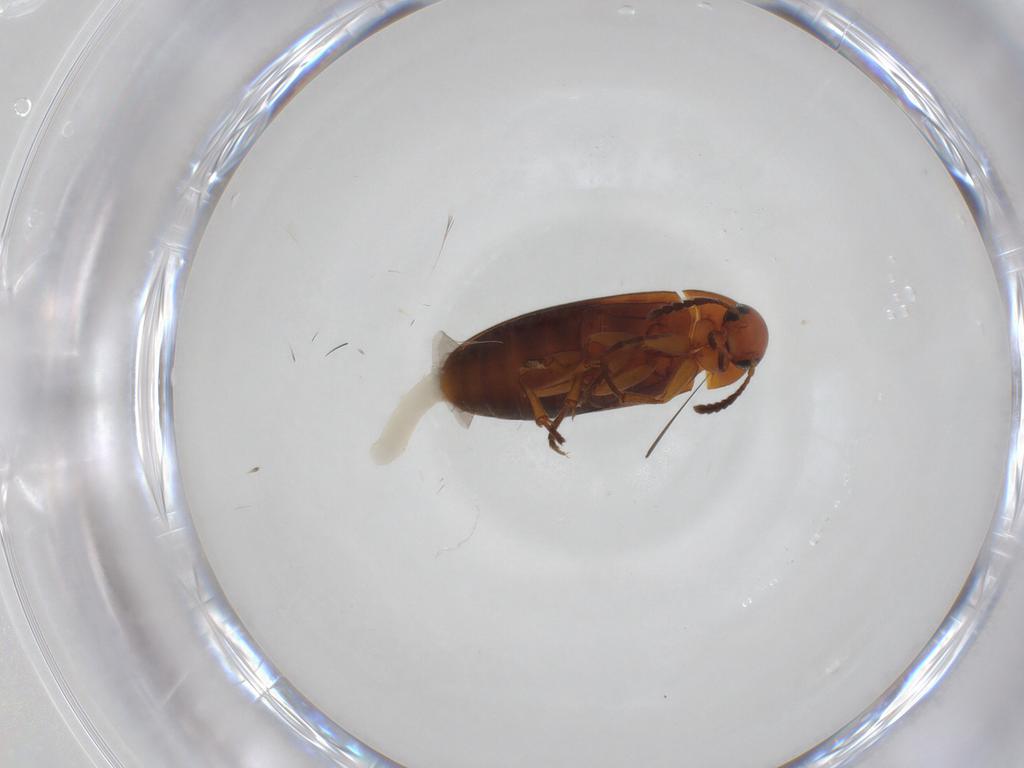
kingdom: Animalia
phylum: Arthropoda
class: Insecta
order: Coleoptera
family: Scraptiidae
